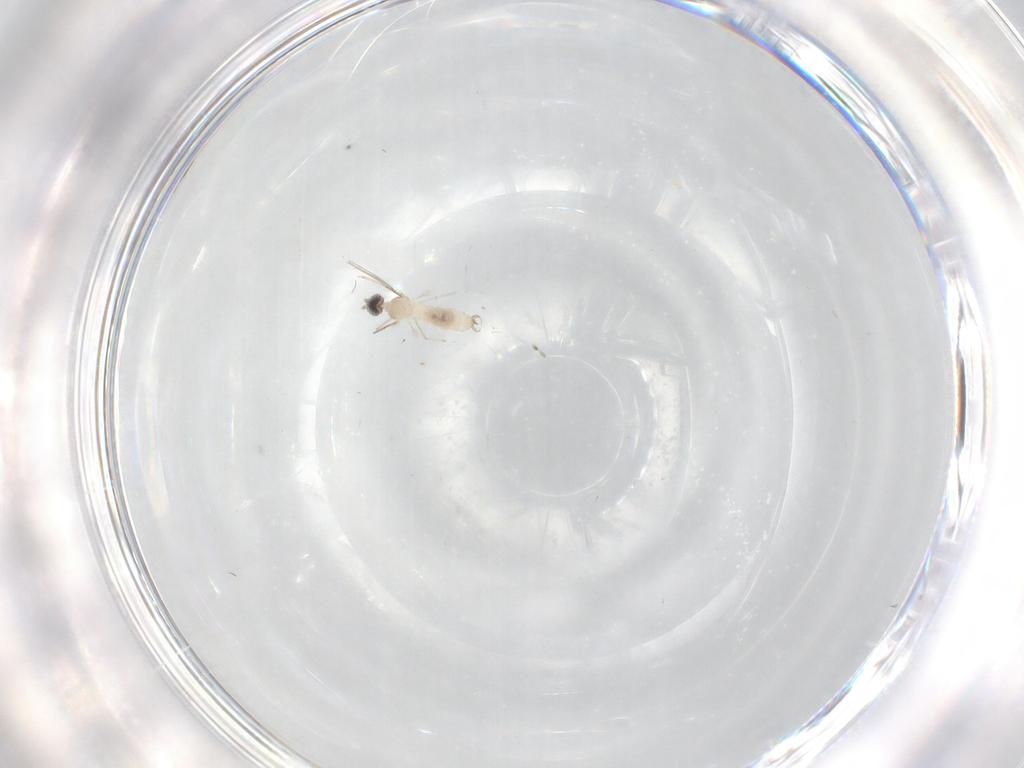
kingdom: Animalia
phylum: Arthropoda
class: Insecta
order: Diptera
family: Cecidomyiidae
